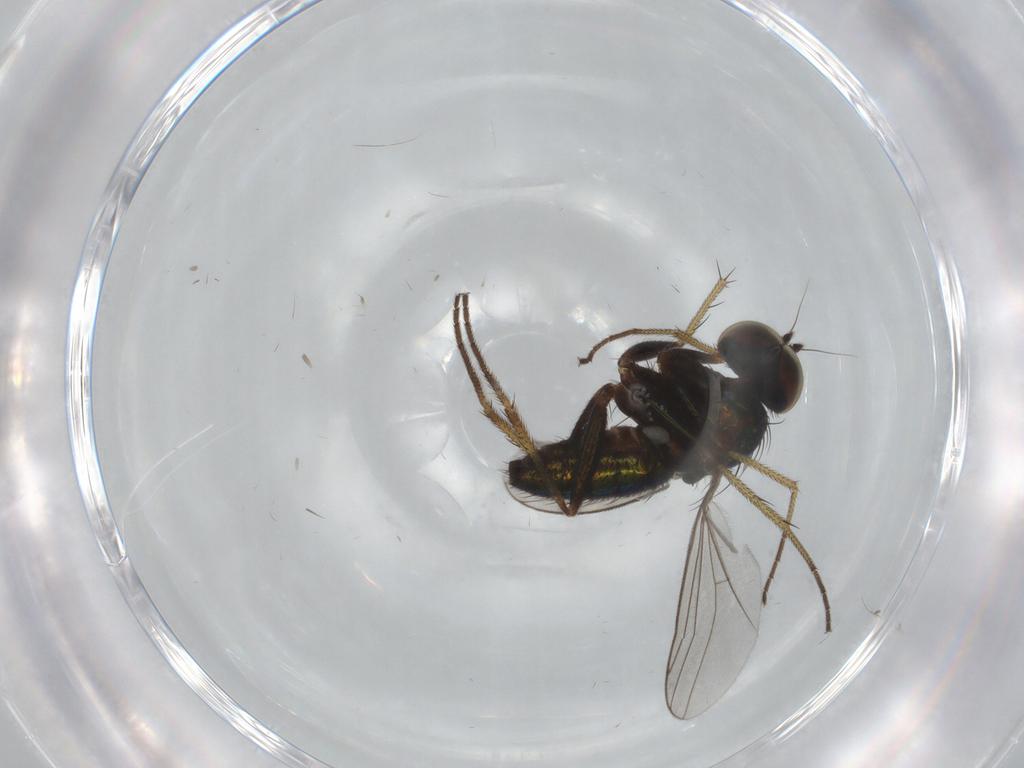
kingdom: Animalia
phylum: Arthropoda
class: Insecta
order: Diptera
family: Dolichopodidae
